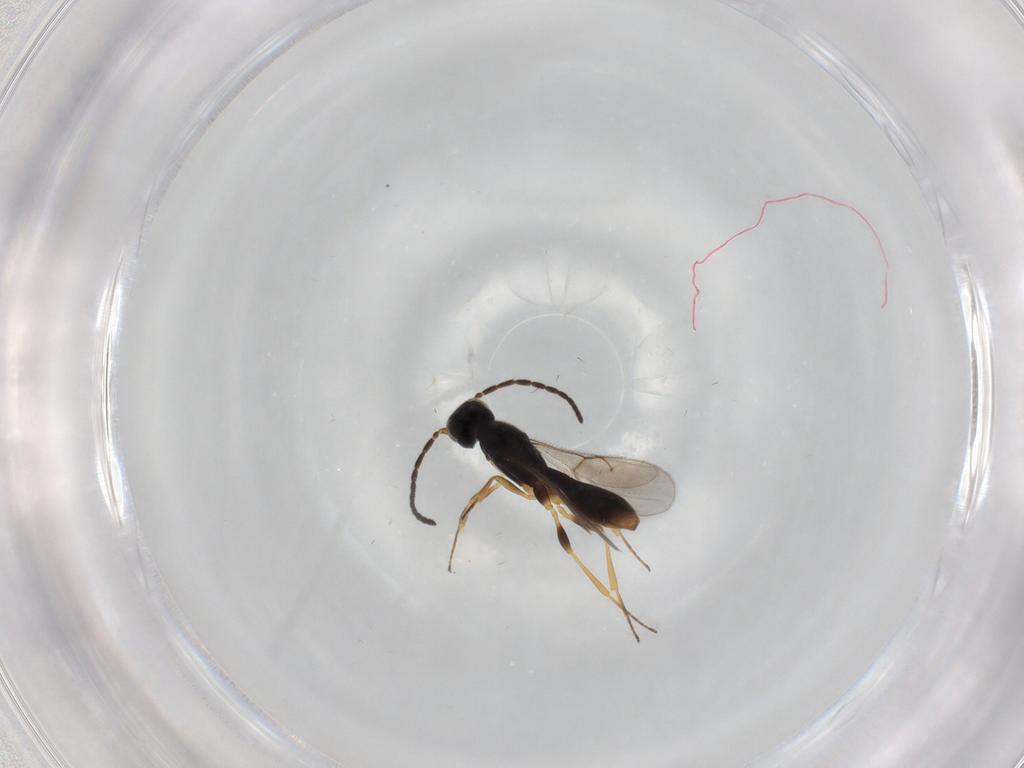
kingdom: Animalia
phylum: Arthropoda
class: Insecta
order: Hymenoptera
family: Scelionidae
